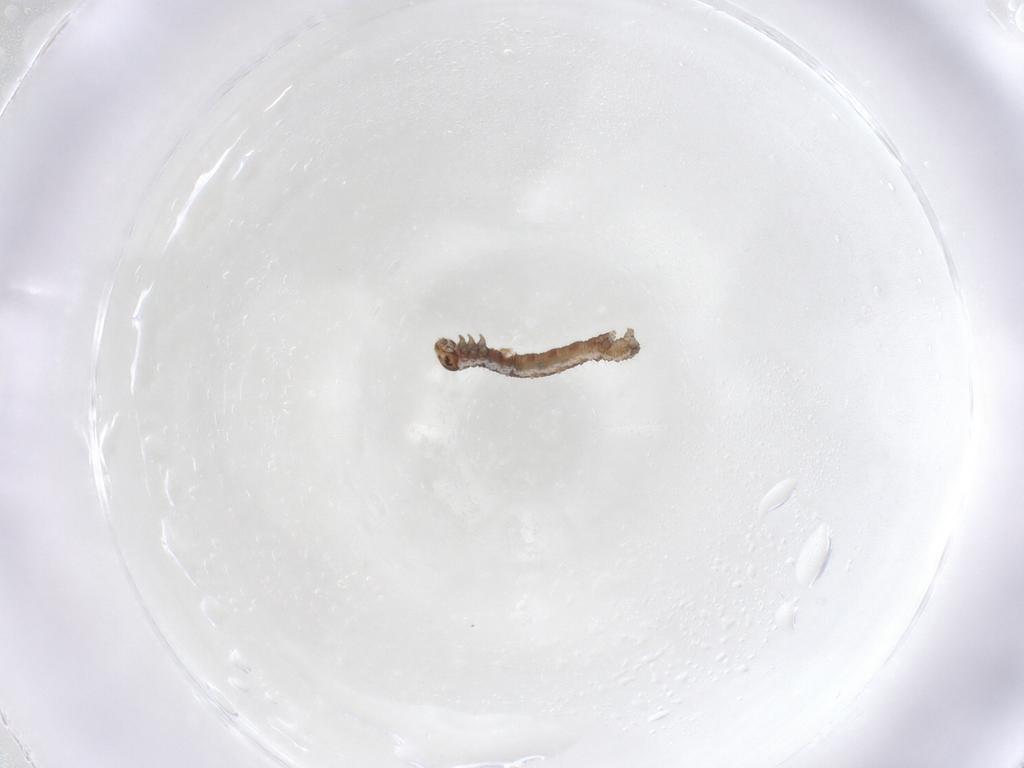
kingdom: Animalia
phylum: Arthropoda
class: Insecta
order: Lepidoptera
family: Geometridae
